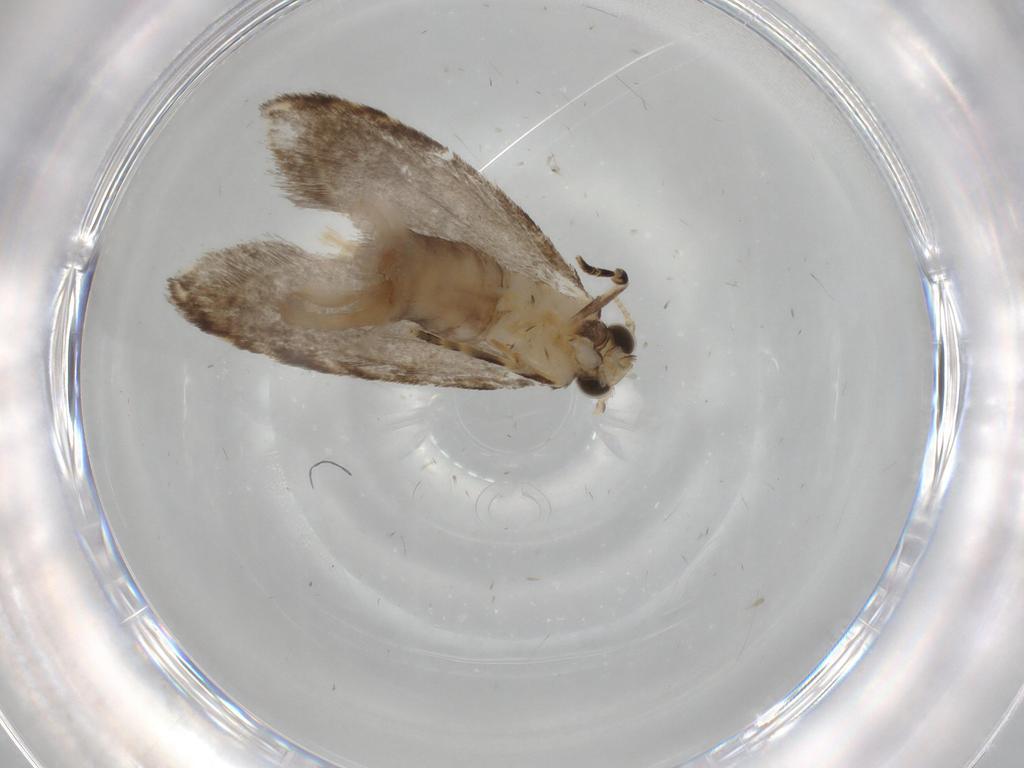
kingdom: Animalia
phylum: Arthropoda
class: Insecta
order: Lepidoptera
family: Tineidae
